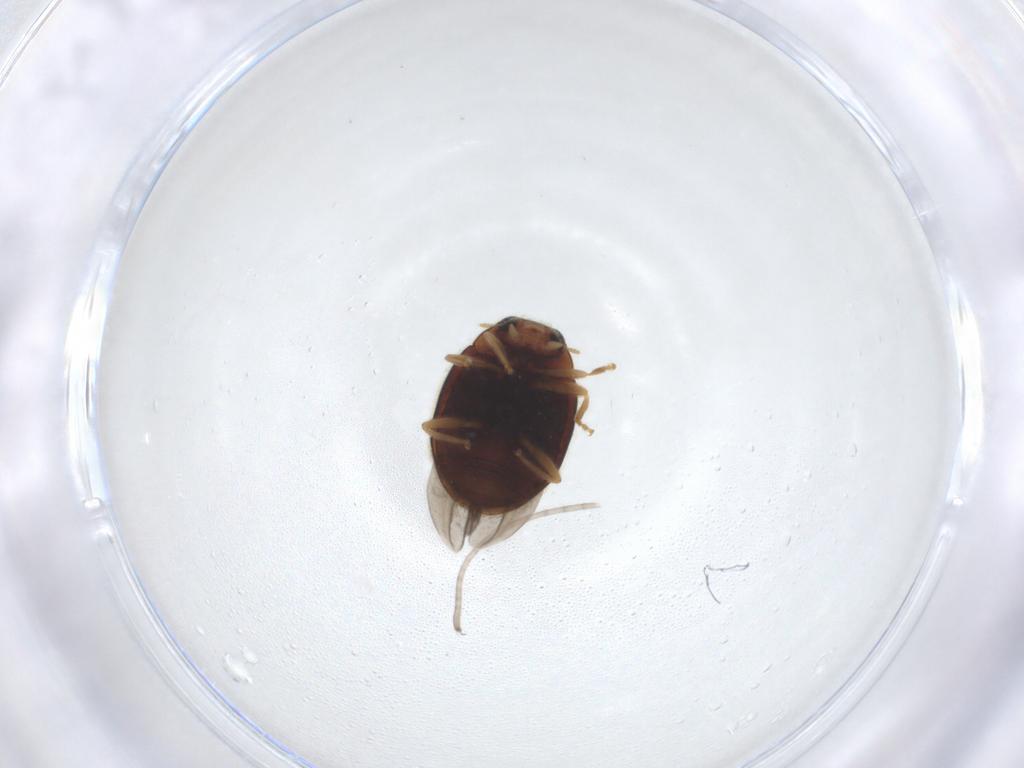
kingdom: Animalia
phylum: Arthropoda
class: Insecta
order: Coleoptera
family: Coccinellidae
